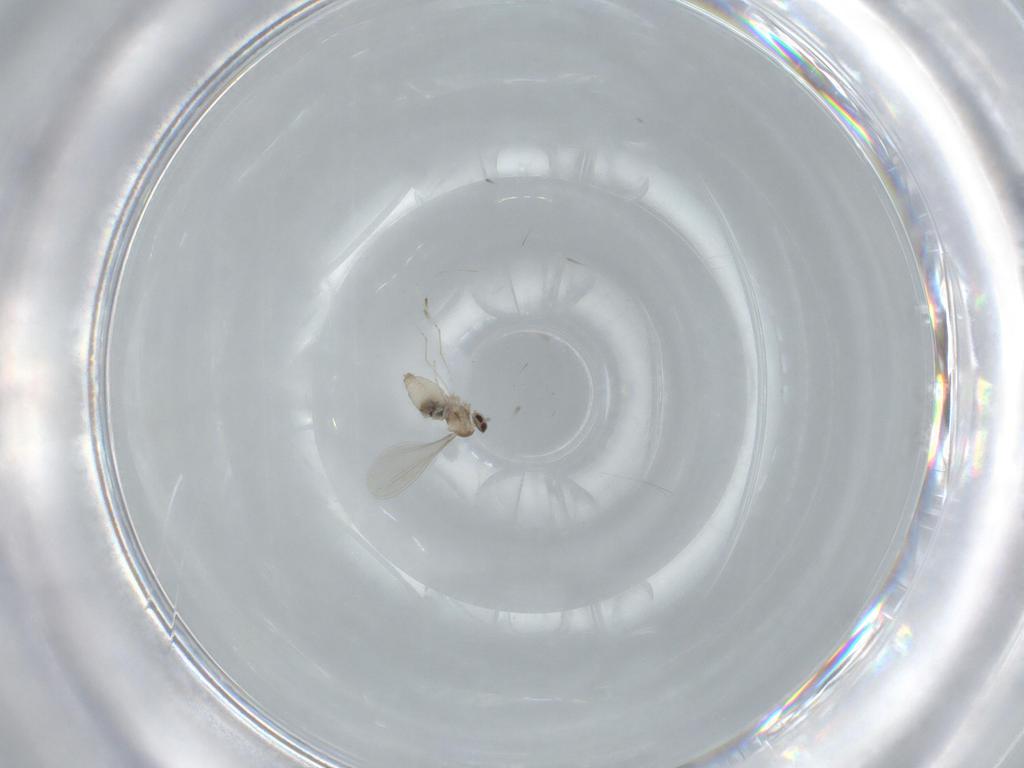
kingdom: Animalia
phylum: Arthropoda
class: Insecta
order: Diptera
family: Cecidomyiidae
